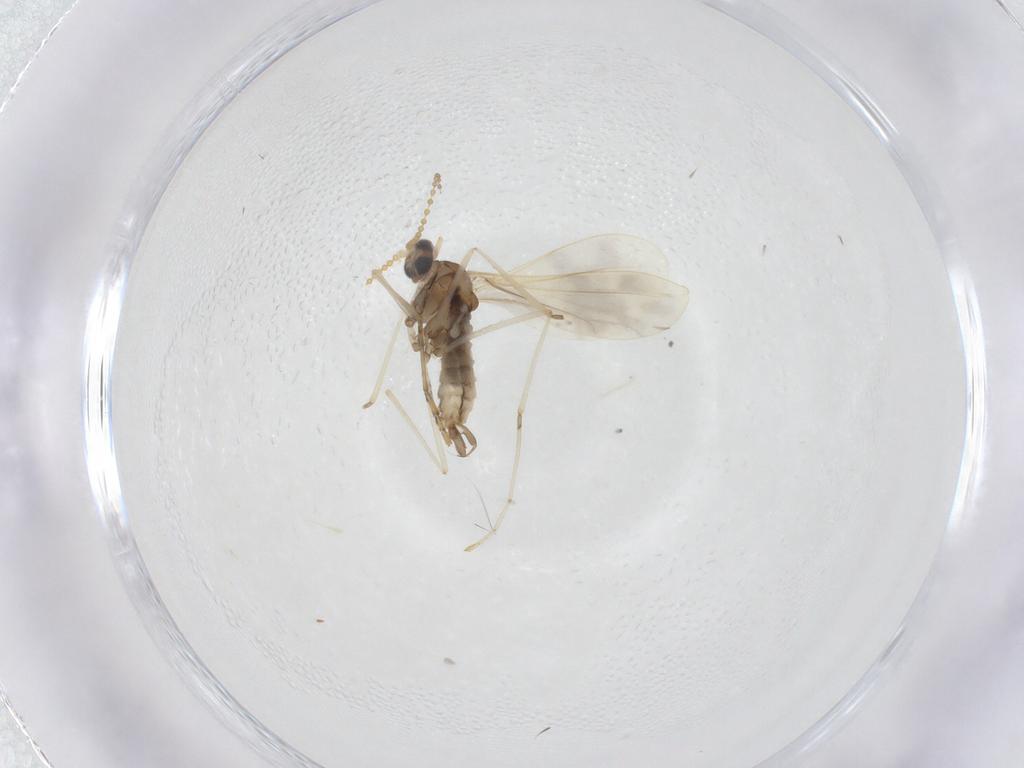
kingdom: Animalia
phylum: Arthropoda
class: Insecta
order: Diptera
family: Cecidomyiidae
